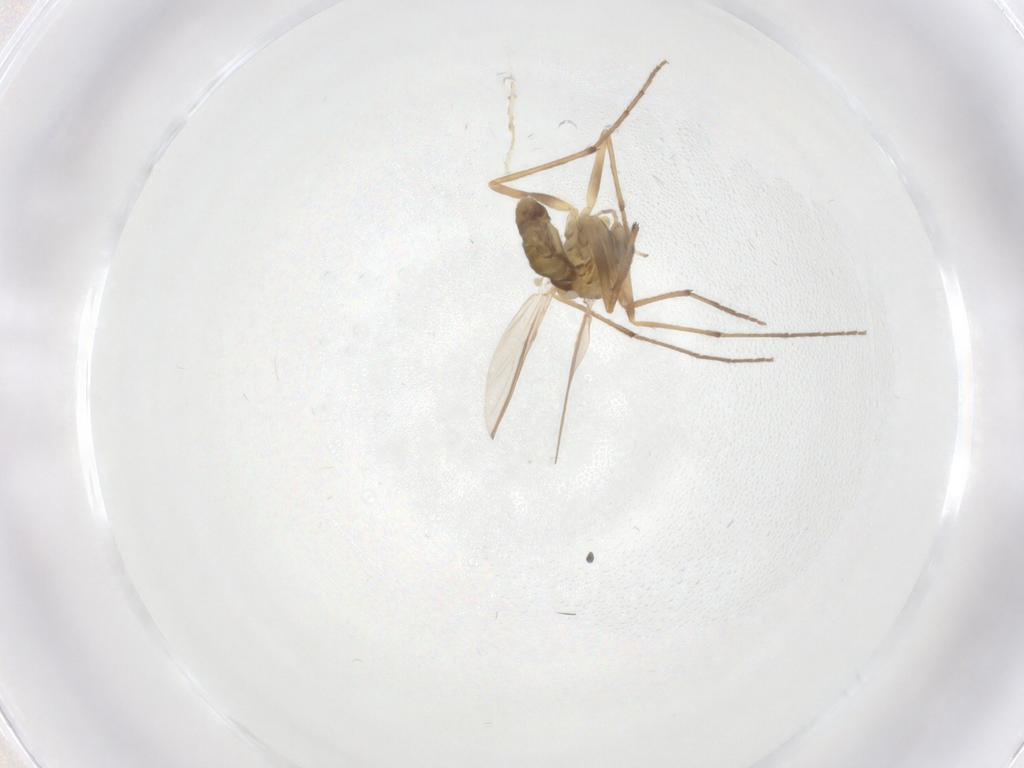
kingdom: Animalia
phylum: Arthropoda
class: Insecta
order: Diptera
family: Chironomidae
